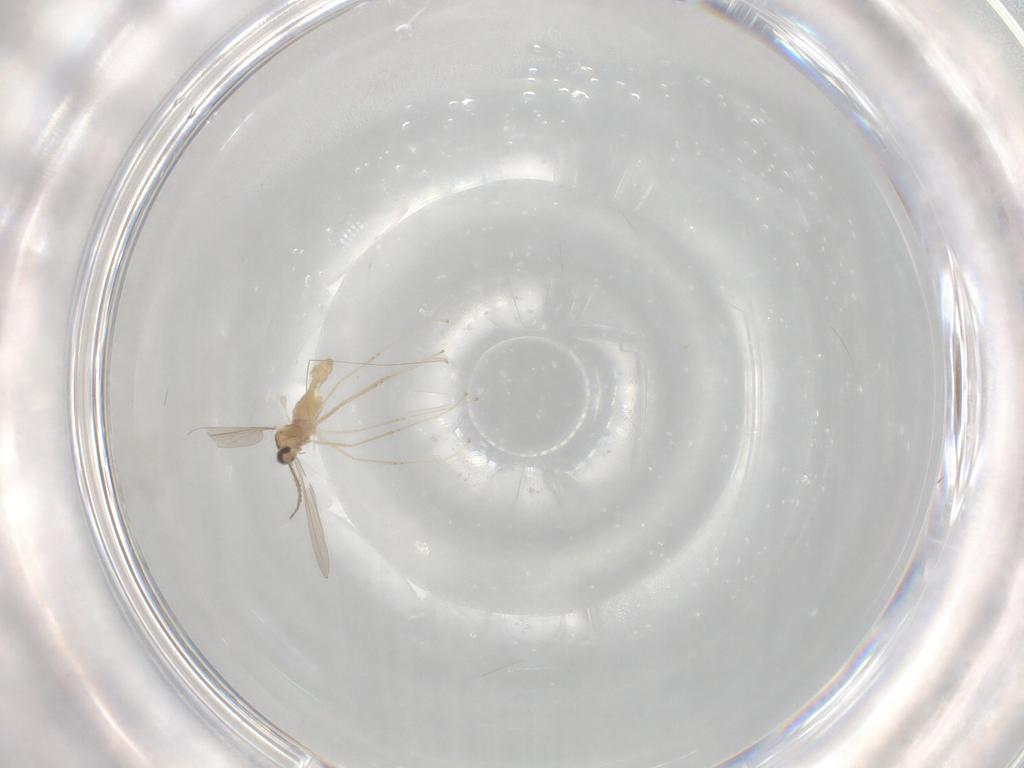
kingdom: Animalia
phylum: Arthropoda
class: Insecta
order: Diptera
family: Cecidomyiidae
